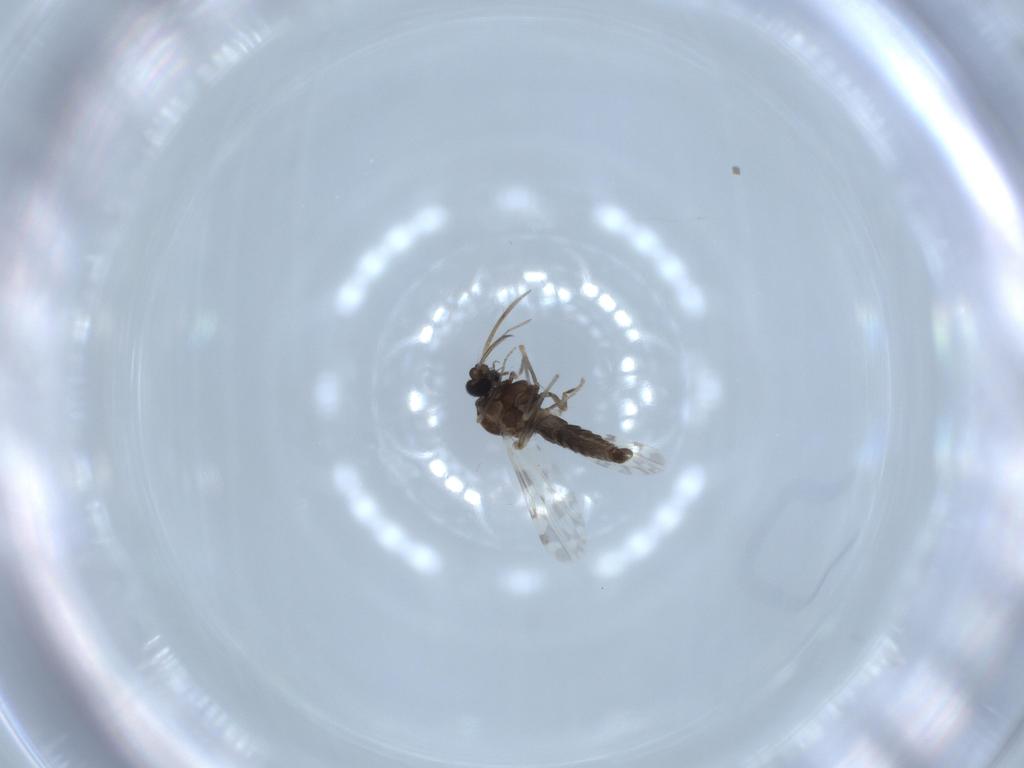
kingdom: Animalia
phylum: Arthropoda
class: Insecta
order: Diptera
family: Ceratopogonidae
